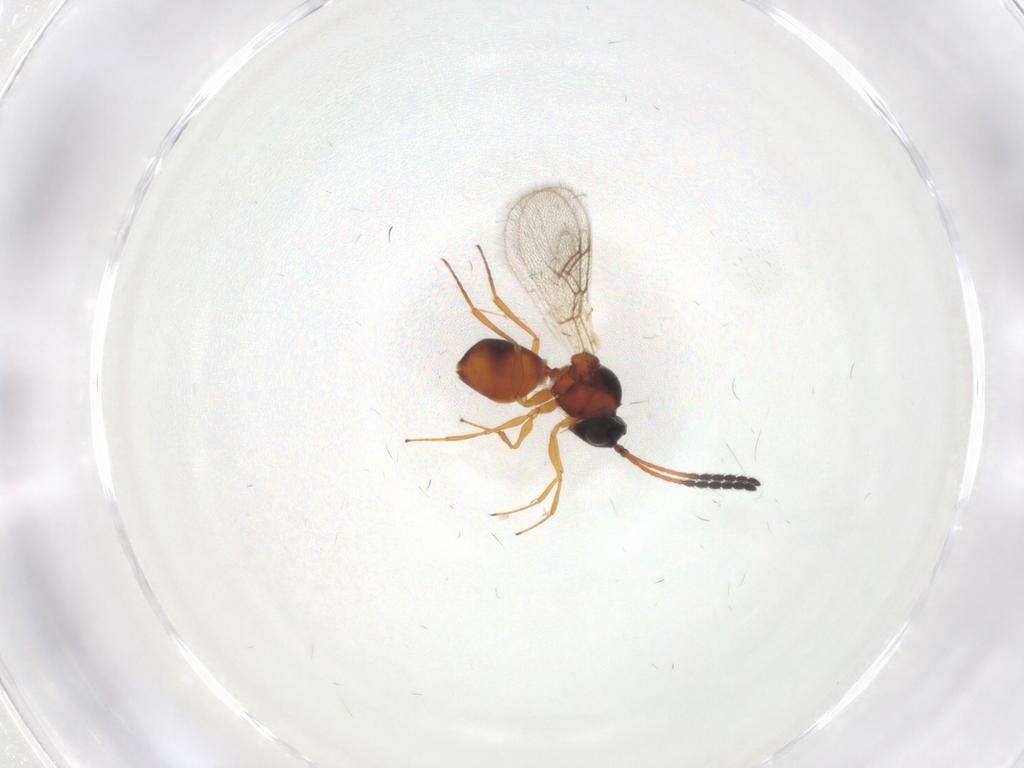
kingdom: Animalia
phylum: Arthropoda
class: Insecta
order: Hymenoptera
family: Figitidae
